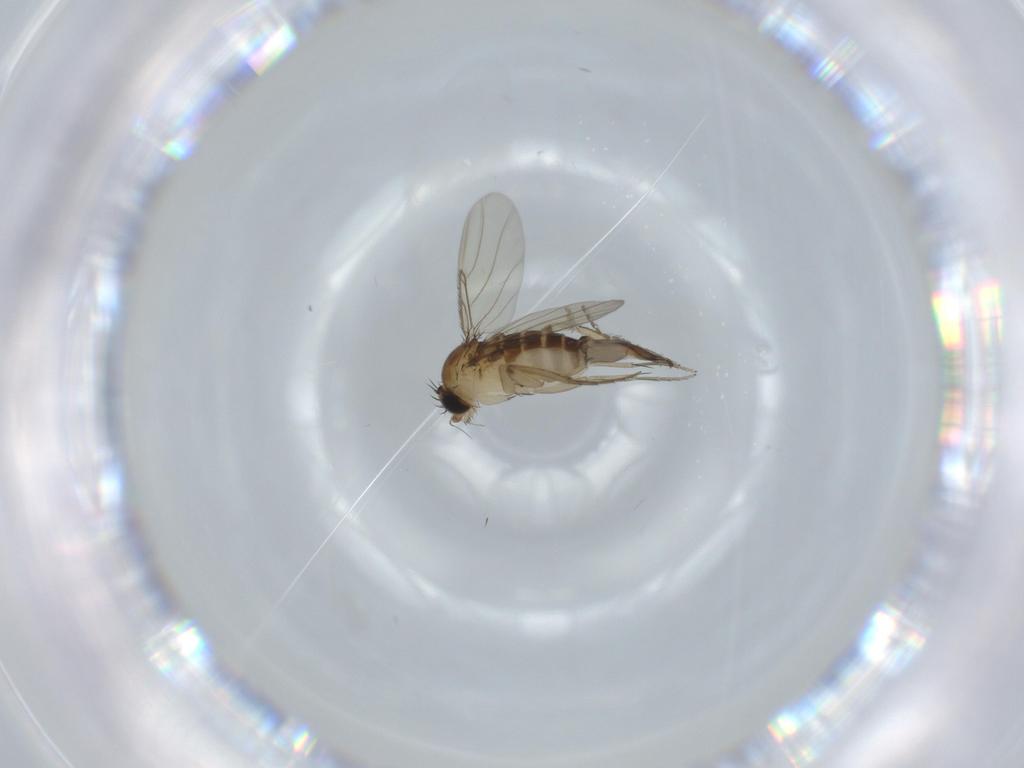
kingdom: Animalia
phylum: Arthropoda
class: Insecta
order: Diptera
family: Phoridae
